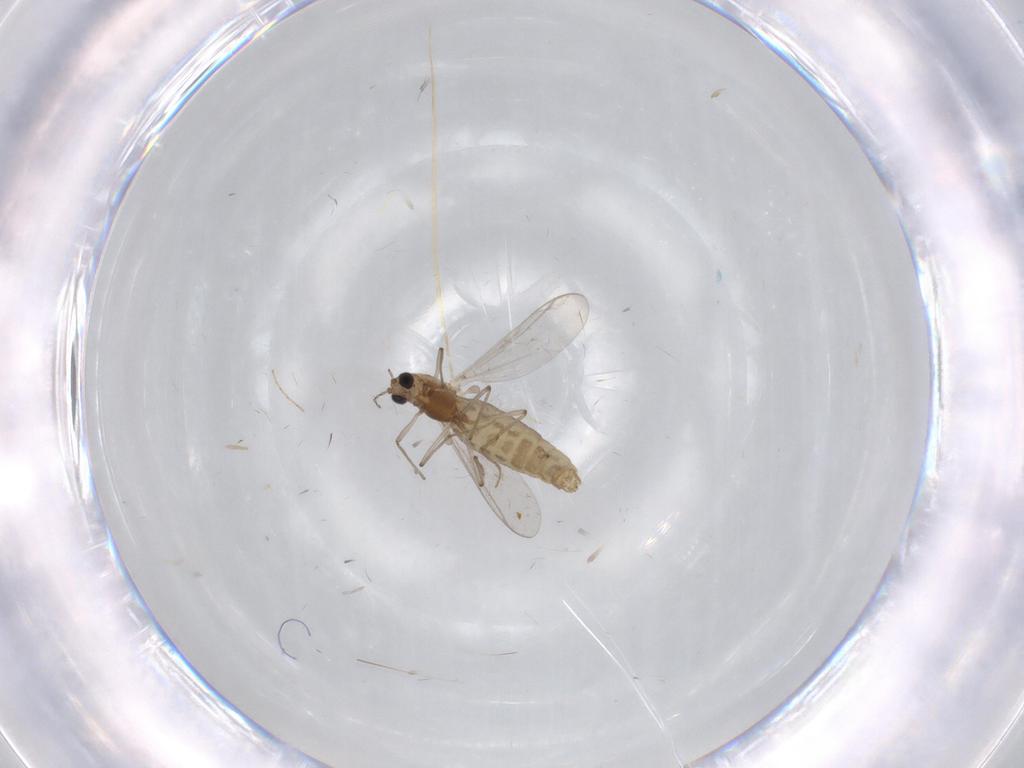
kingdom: Animalia
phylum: Arthropoda
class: Insecta
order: Diptera
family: Chironomidae
